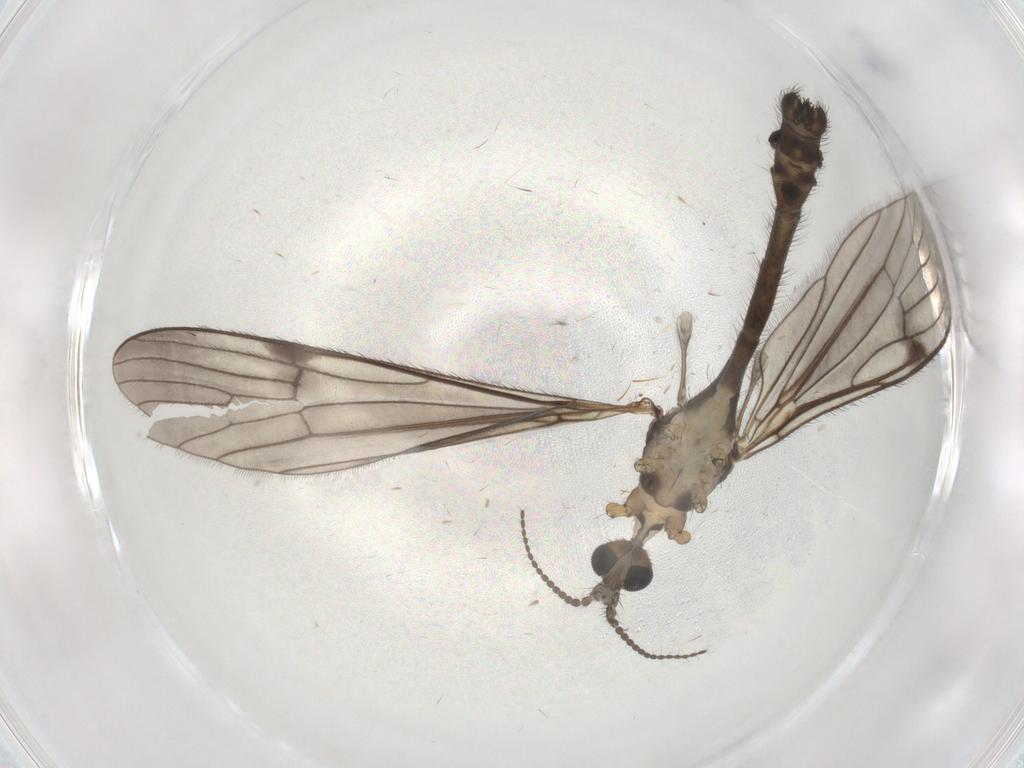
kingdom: Animalia
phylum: Arthropoda
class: Insecta
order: Diptera
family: Limoniidae
